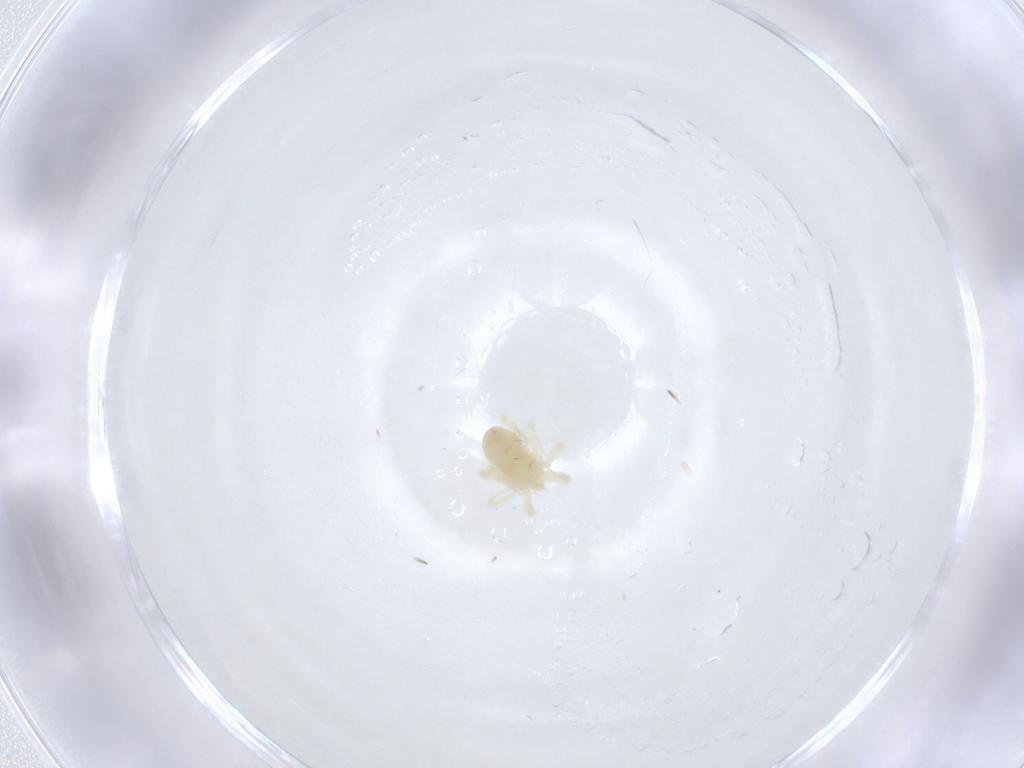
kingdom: Animalia
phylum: Arthropoda
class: Arachnida
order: Trombidiformes
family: Anystidae
